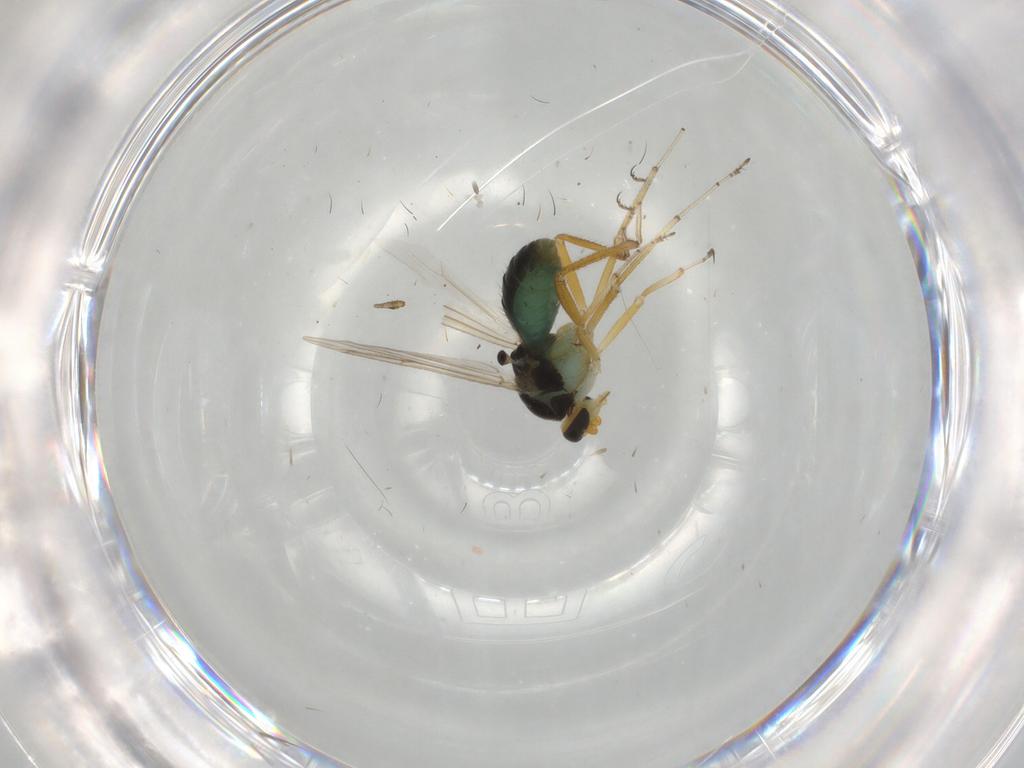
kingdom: Animalia
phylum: Arthropoda
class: Insecta
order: Diptera
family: Ceratopogonidae
